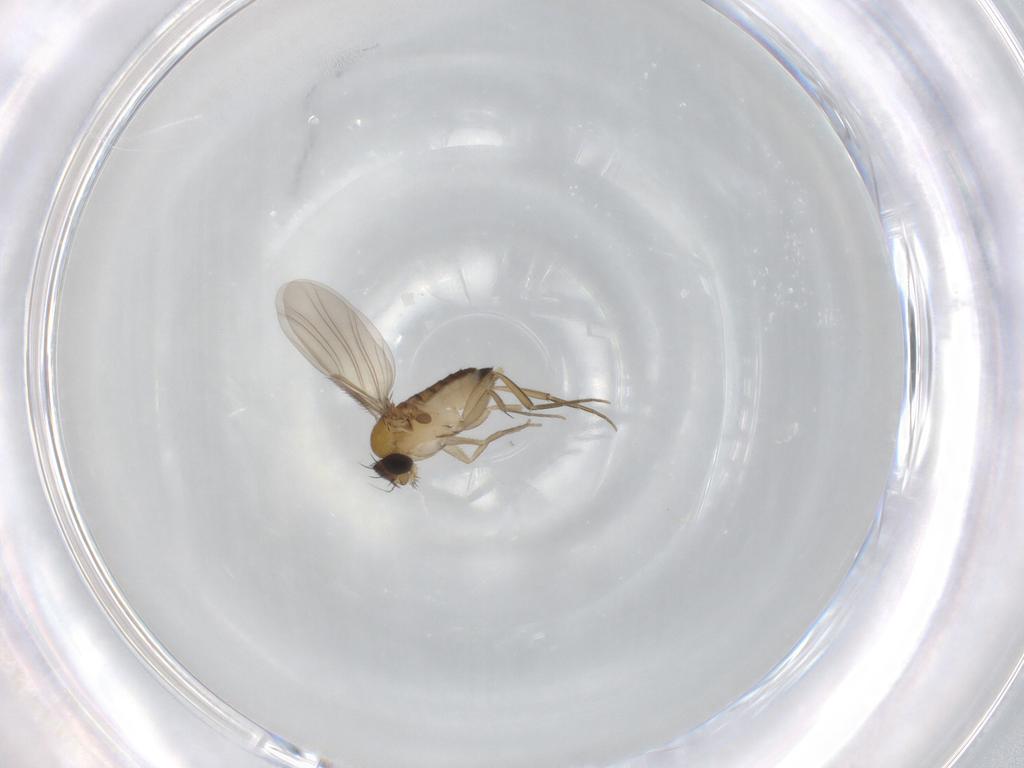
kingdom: Animalia
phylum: Arthropoda
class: Insecta
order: Diptera
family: Phoridae
